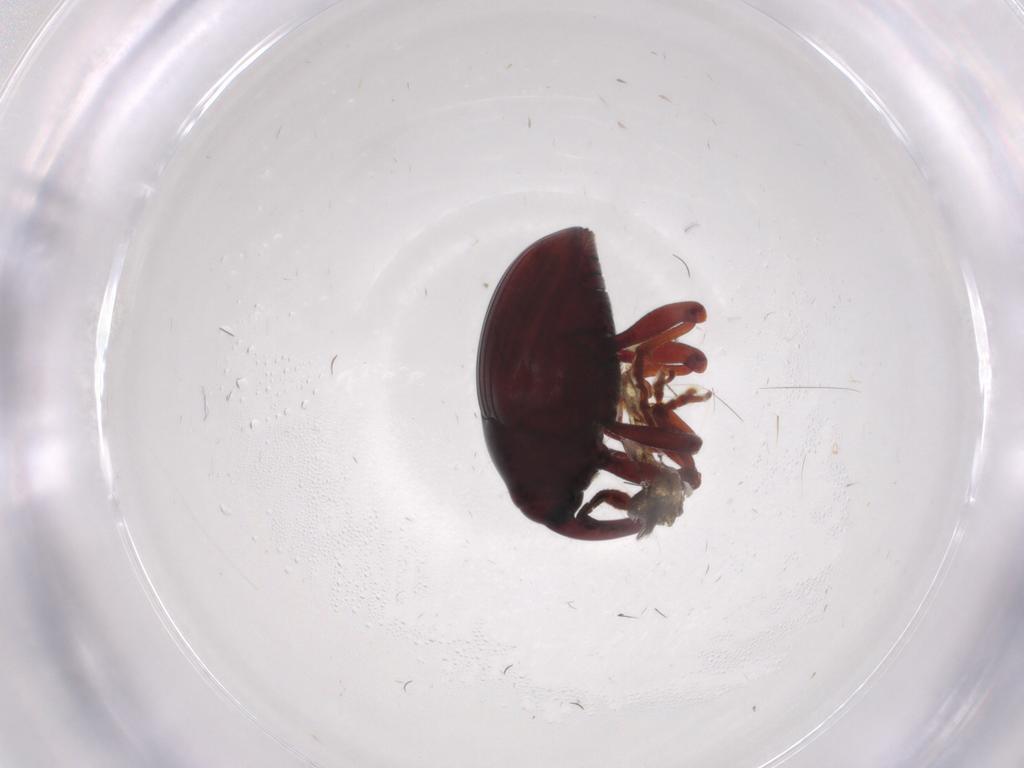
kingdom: Animalia
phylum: Arthropoda
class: Insecta
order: Coleoptera
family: Curculionidae
